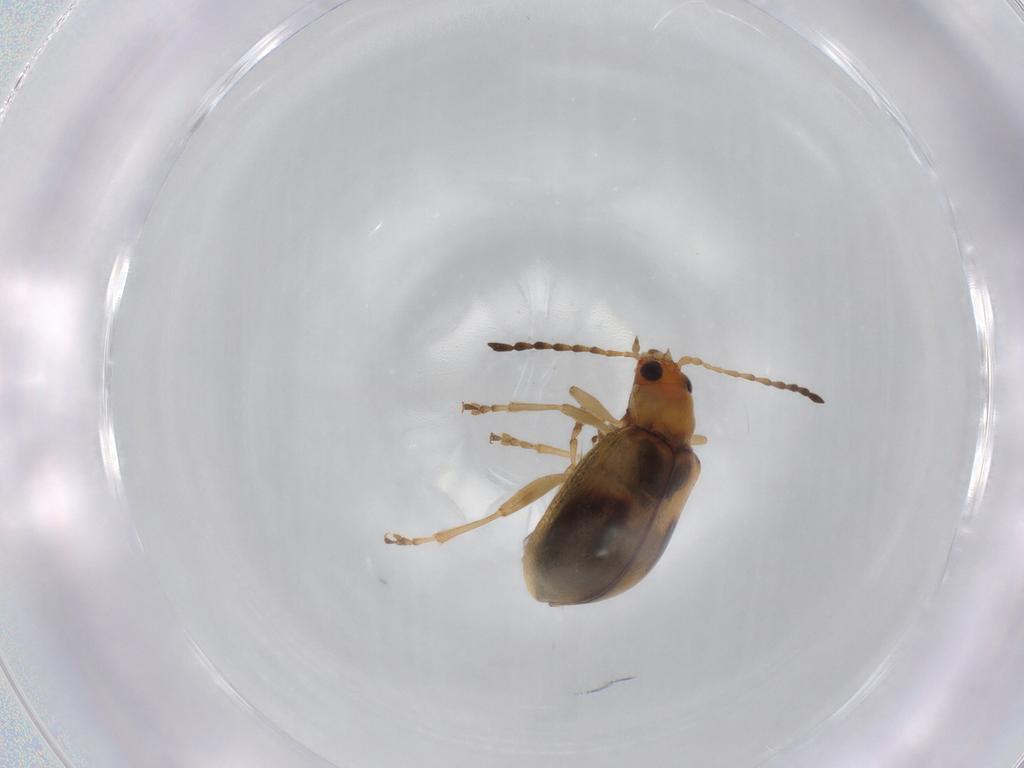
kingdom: Animalia
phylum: Arthropoda
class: Insecta
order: Coleoptera
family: Chrysomelidae
